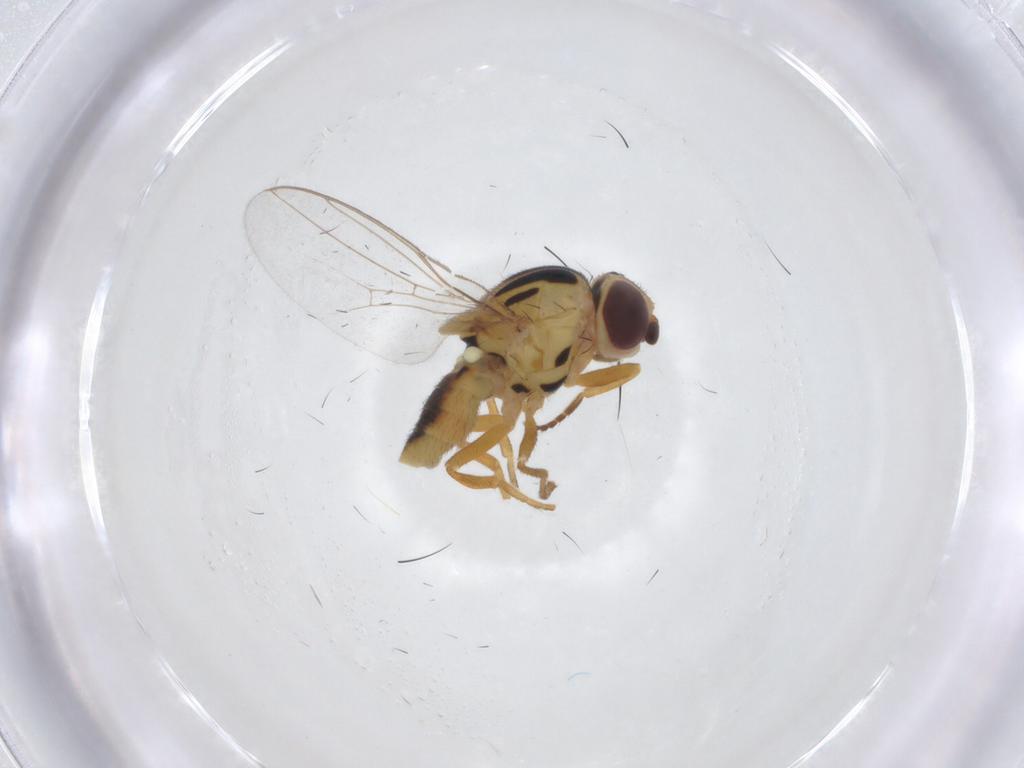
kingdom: Animalia
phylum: Arthropoda
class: Insecta
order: Diptera
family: Chloropidae
